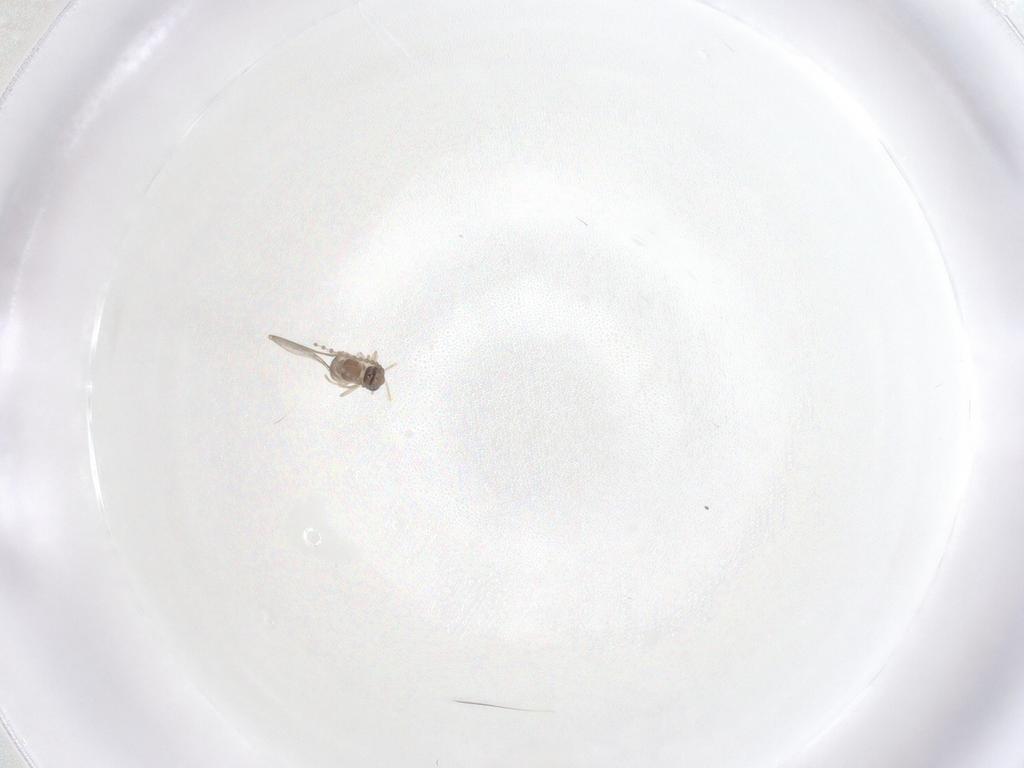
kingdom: Animalia
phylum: Arthropoda
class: Insecta
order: Diptera
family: Cecidomyiidae
